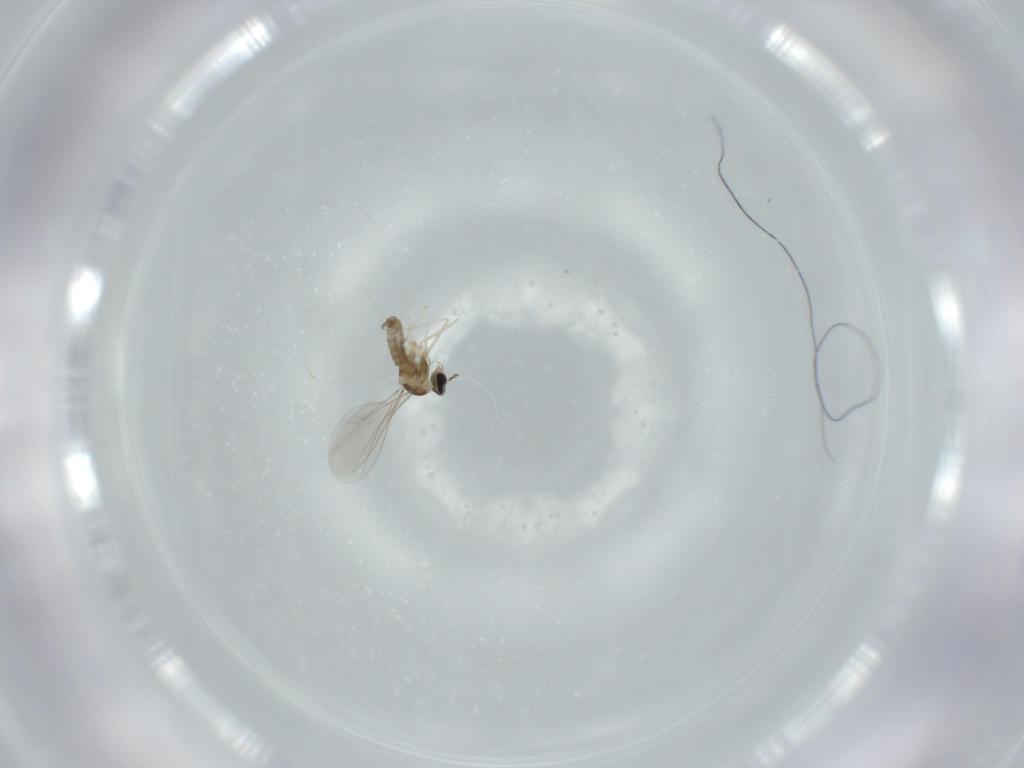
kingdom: Animalia
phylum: Arthropoda
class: Insecta
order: Diptera
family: Cecidomyiidae
